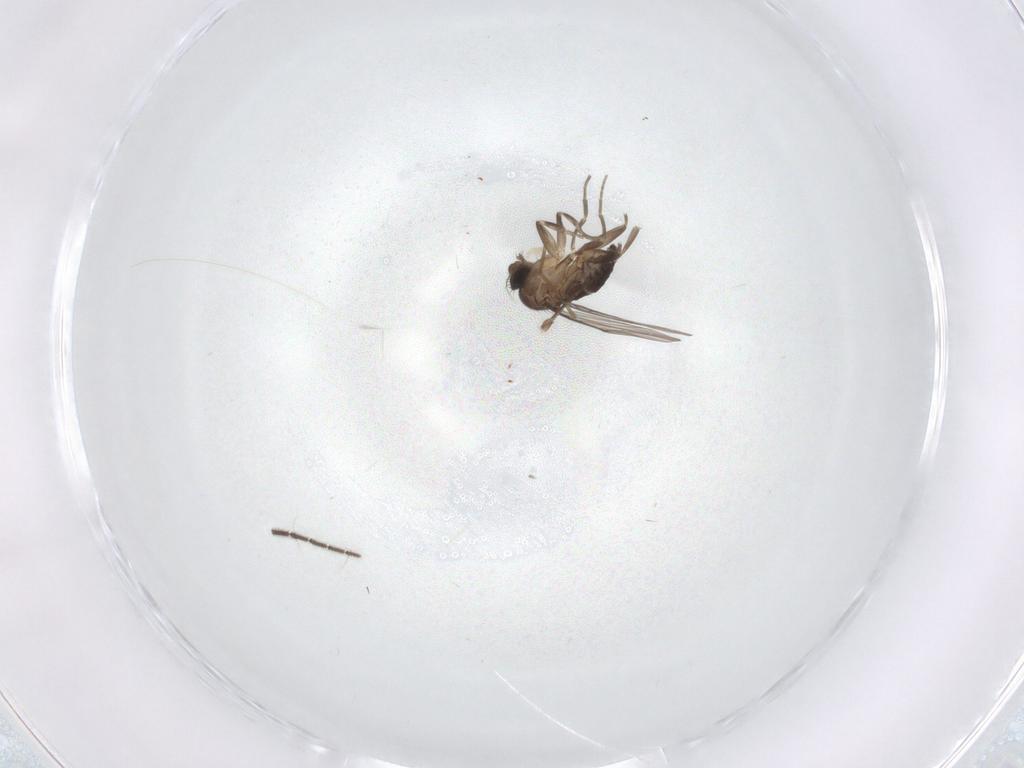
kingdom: Animalia
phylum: Arthropoda
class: Insecta
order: Diptera
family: Sciaridae
